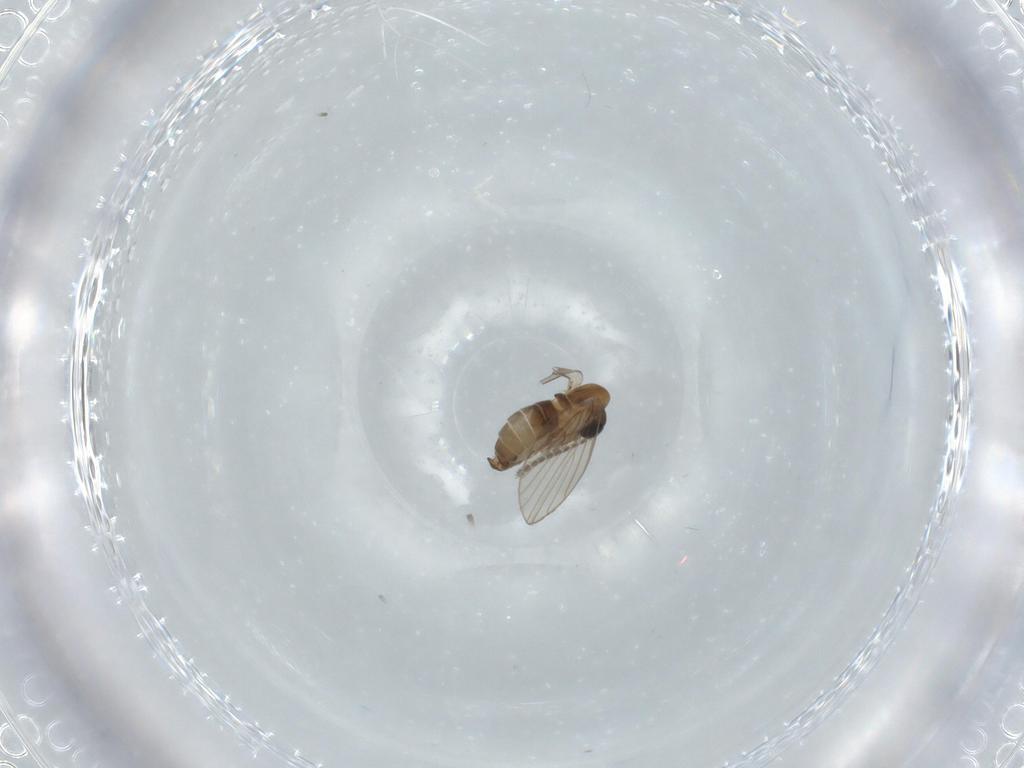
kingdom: Animalia
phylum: Arthropoda
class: Insecta
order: Diptera
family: Psychodidae
